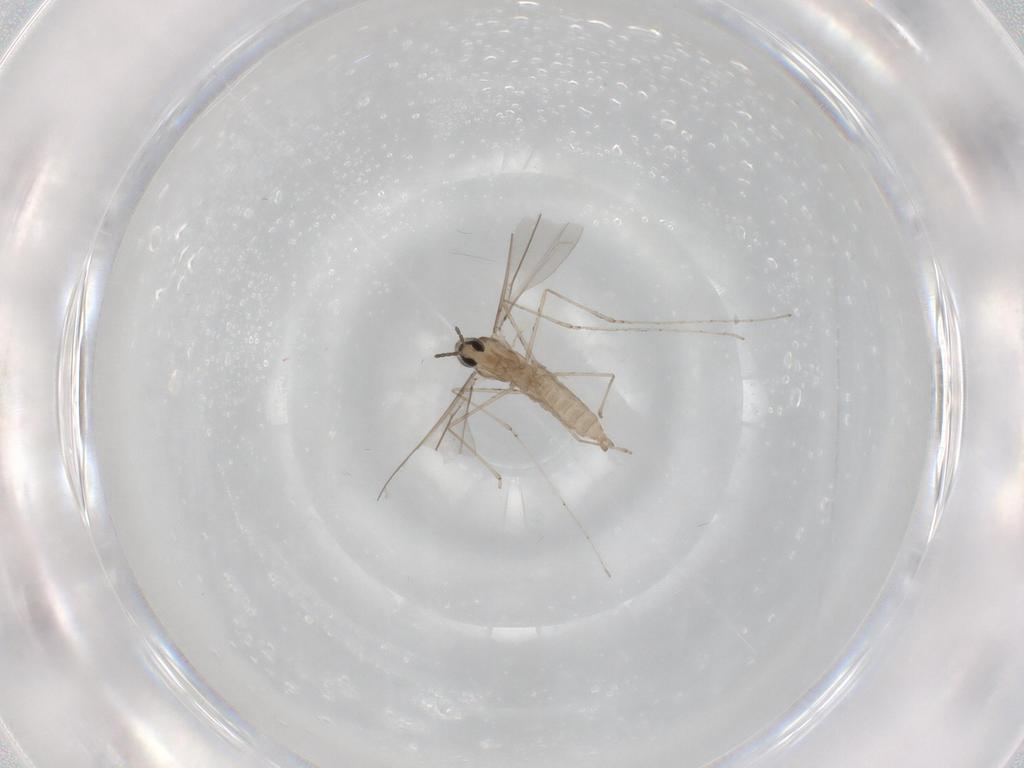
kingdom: Animalia
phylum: Arthropoda
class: Insecta
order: Diptera
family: Cecidomyiidae
